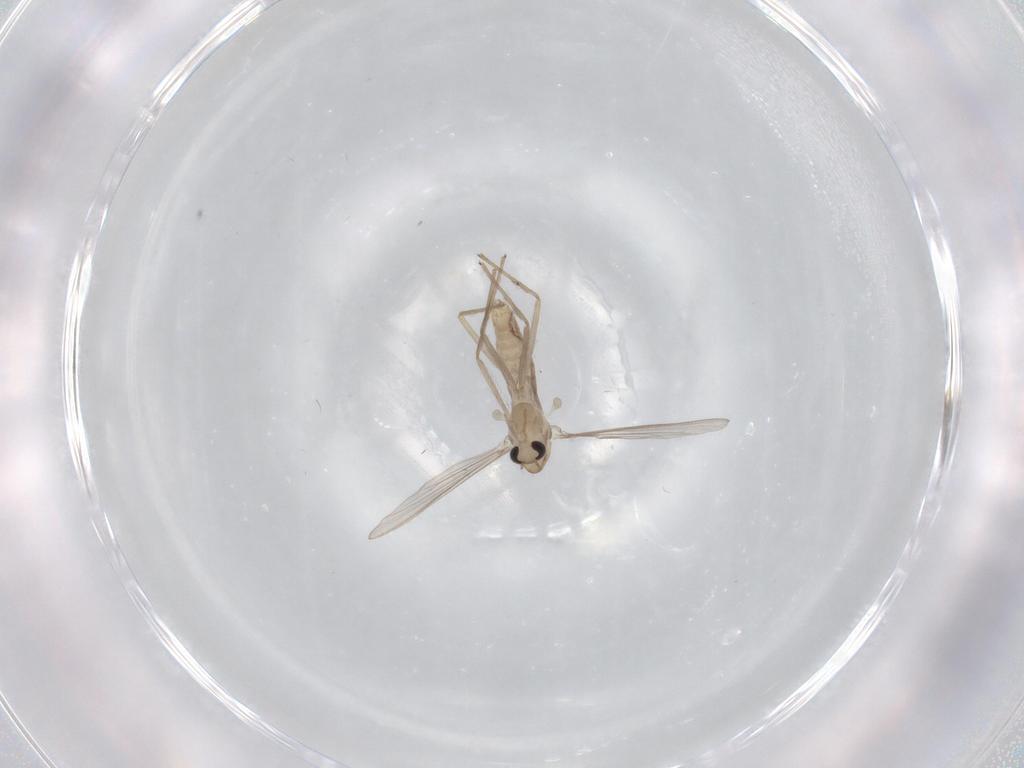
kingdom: Animalia
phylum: Arthropoda
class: Insecta
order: Diptera
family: Chironomidae
